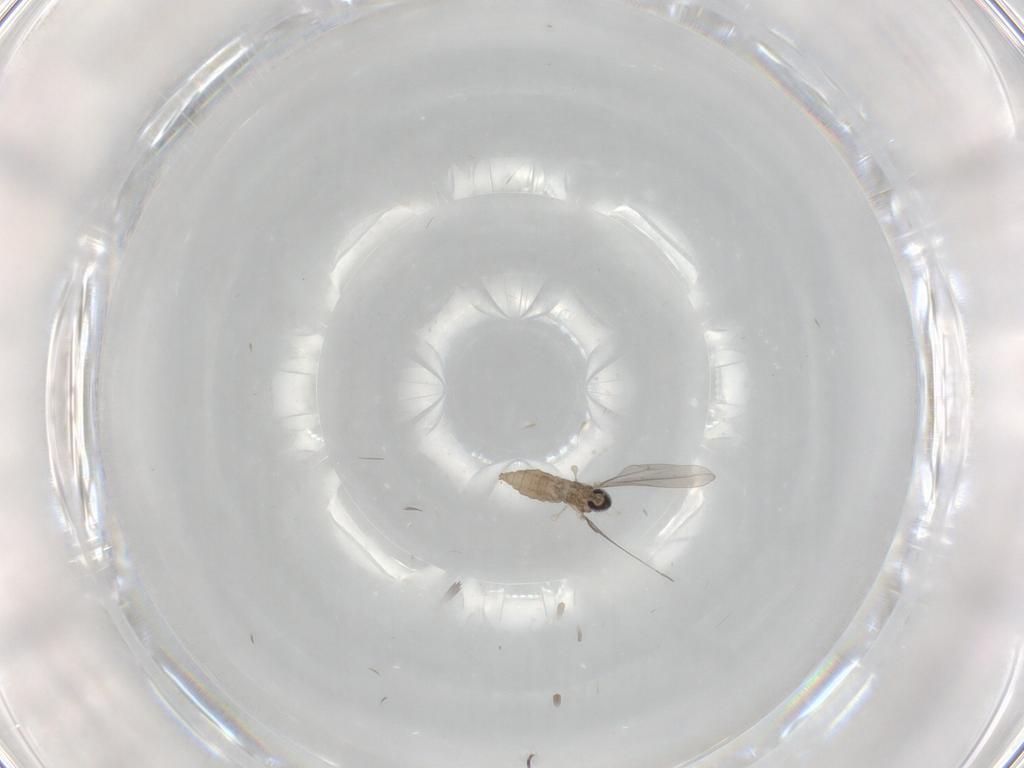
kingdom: Animalia
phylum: Arthropoda
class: Insecta
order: Diptera
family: Cecidomyiidae
